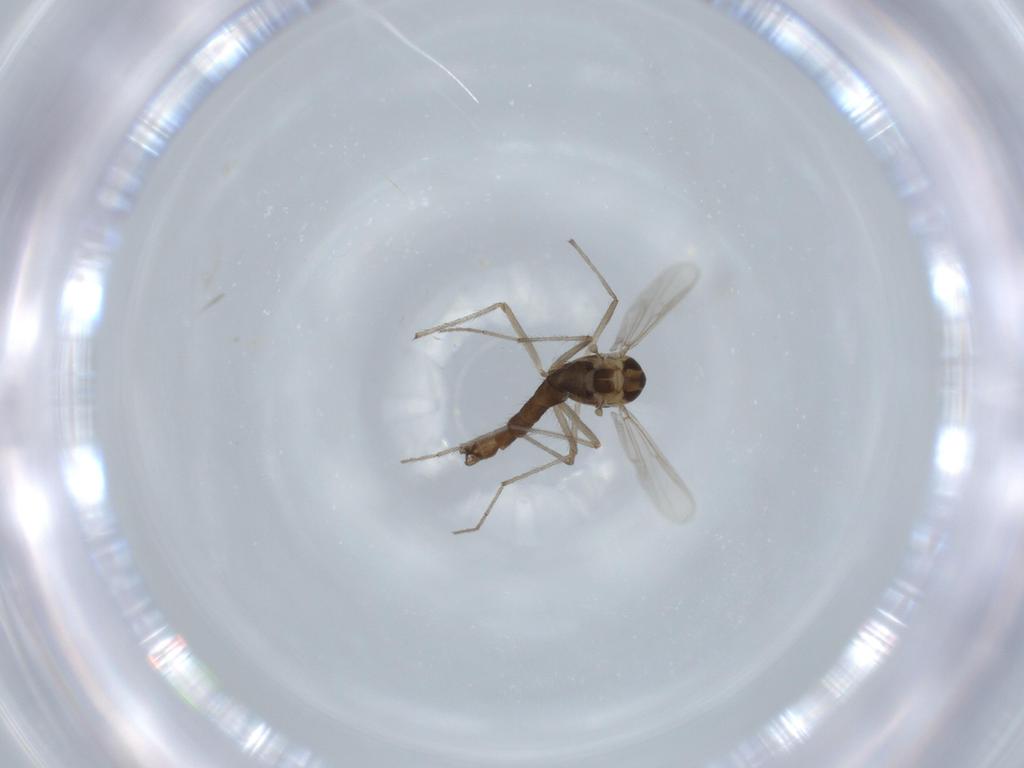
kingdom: Animalia
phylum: Arthropoda
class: Insecta
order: Diptera
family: Chironomidae
